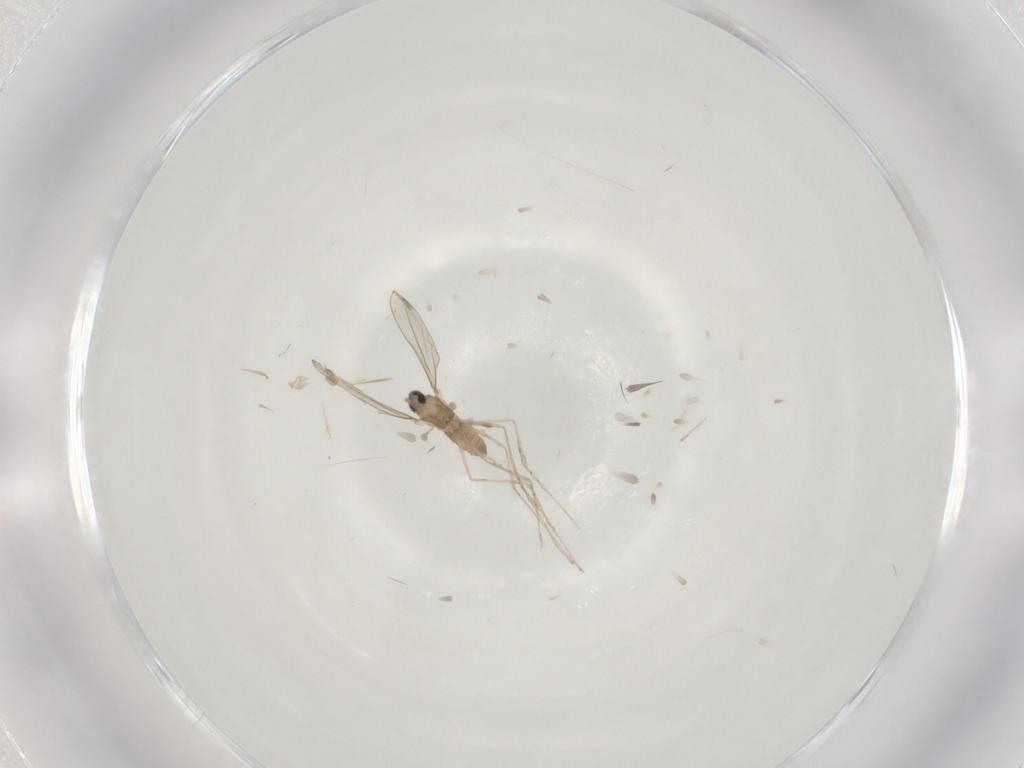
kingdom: Animalia
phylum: Arthropoda
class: Insecta
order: Diptera
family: Cecidomyiidae
